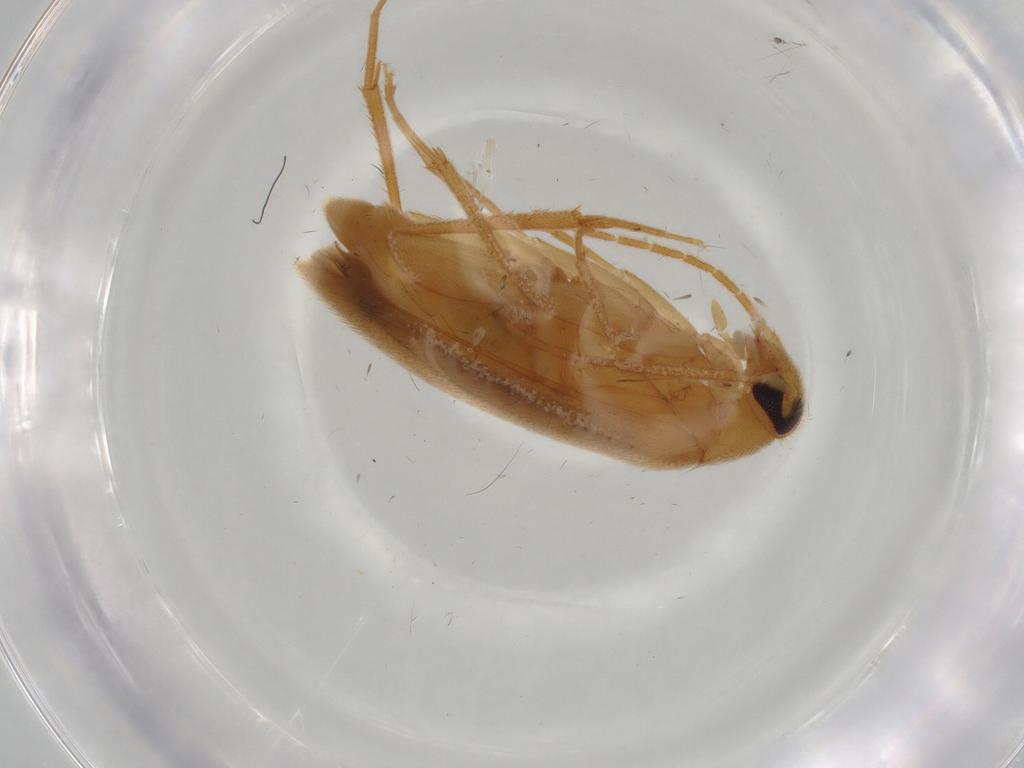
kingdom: Animalia
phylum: Arthropoda
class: Insecta
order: Coleoptera
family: Scraptiidae
